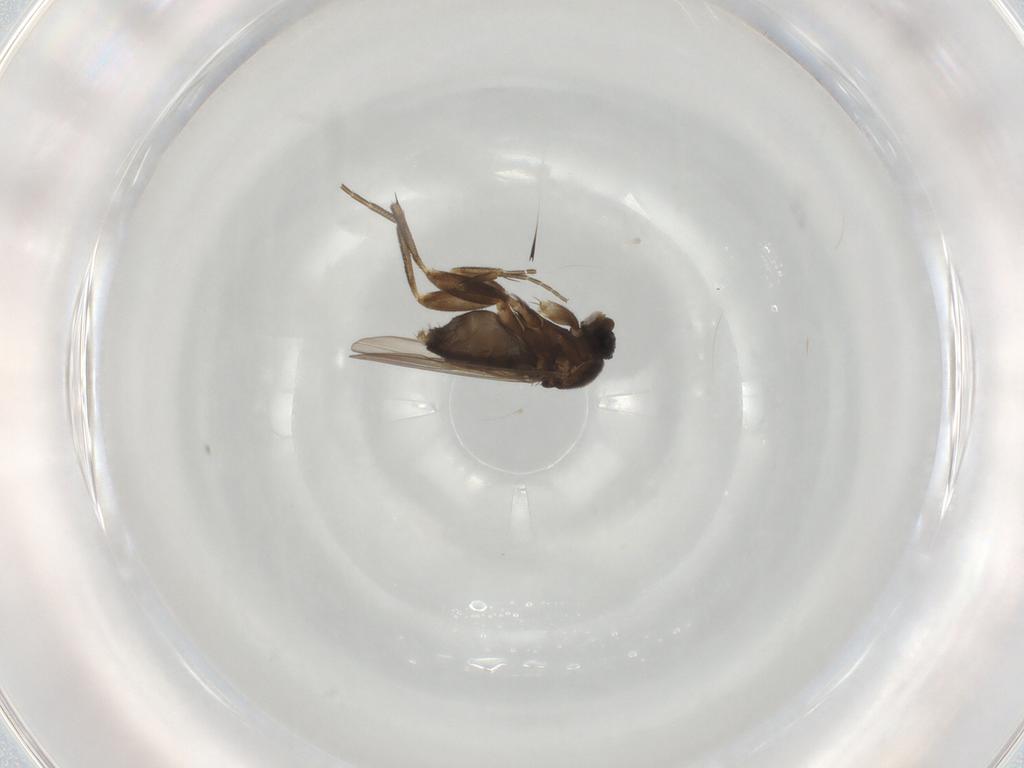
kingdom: Animalia
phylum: Arthropoda
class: Insecta
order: Diptera
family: Phoridae
